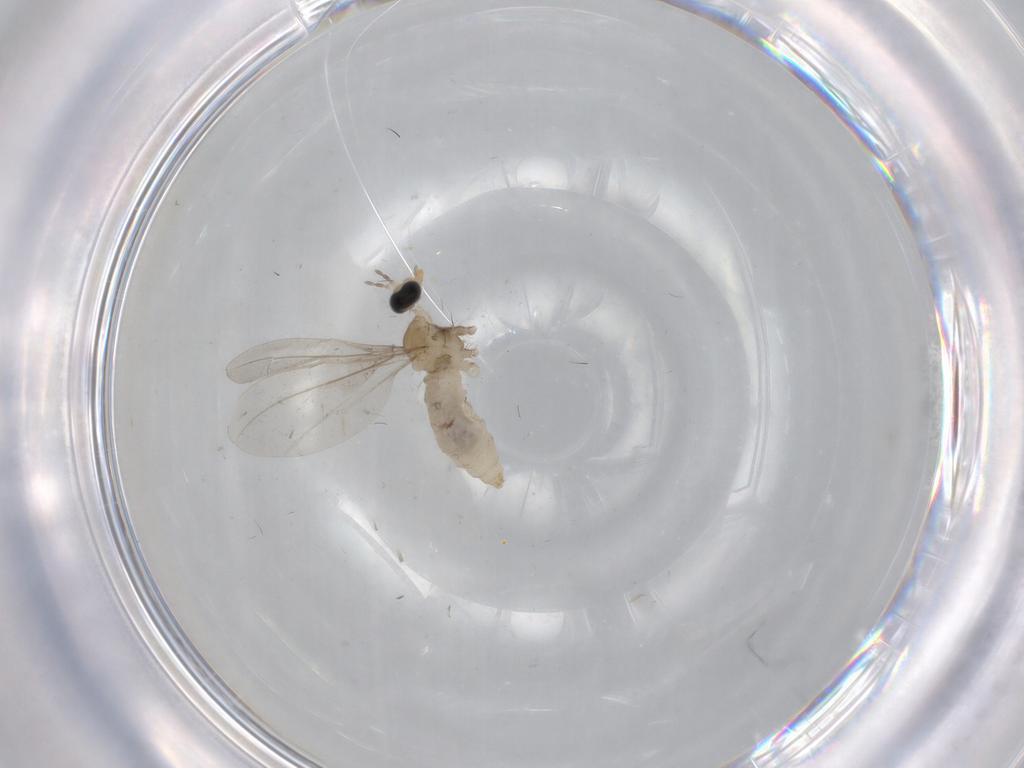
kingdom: Animalia
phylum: Arthropoda
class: Insecta
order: Diptera
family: Cecidomyiidae
